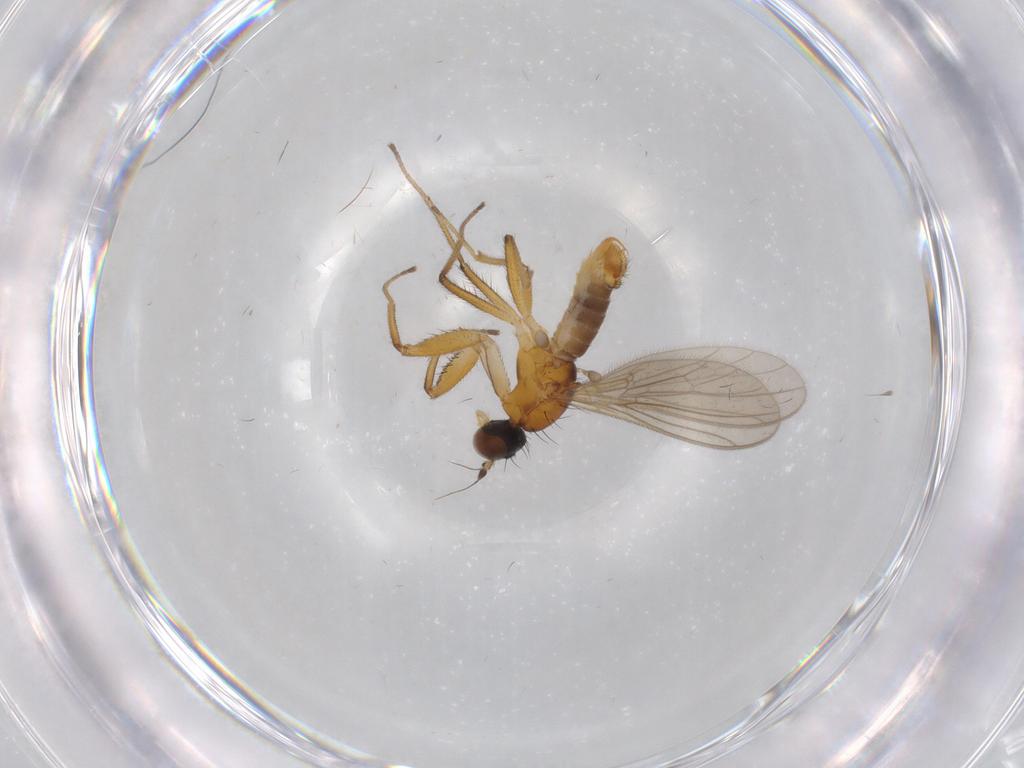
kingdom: Animalia
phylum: Arthropoda
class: Insecta
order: Diptera
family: Empididae
